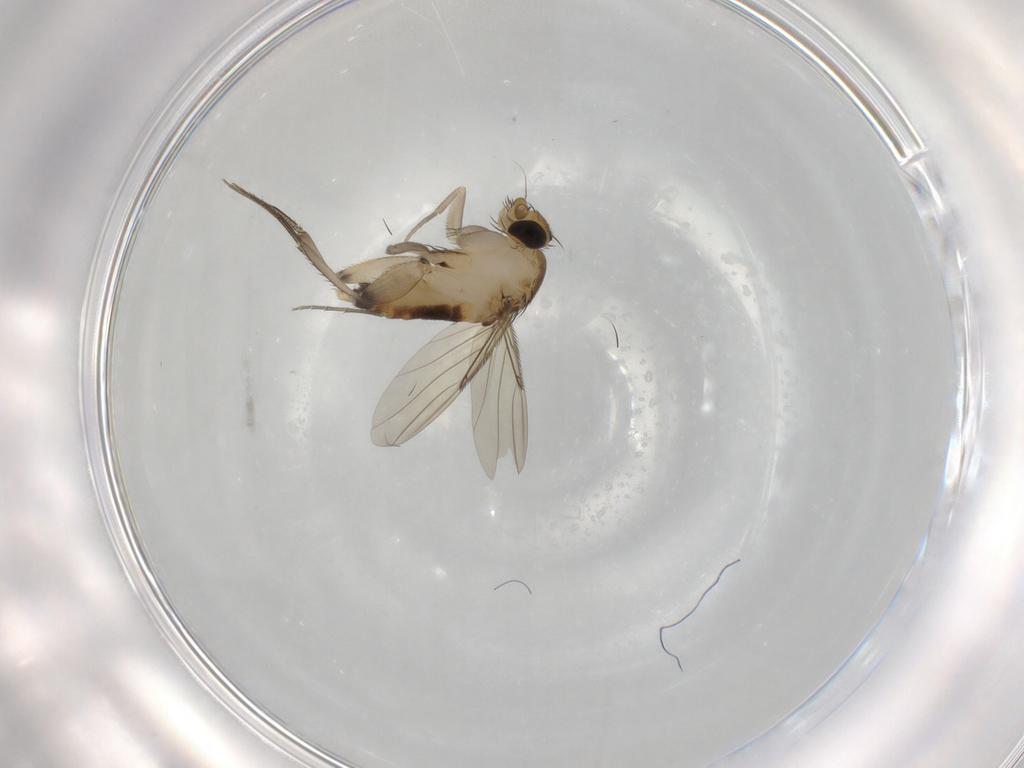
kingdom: Animalia
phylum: Arthropoda
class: Insecta
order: Diptera
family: Phoridae
